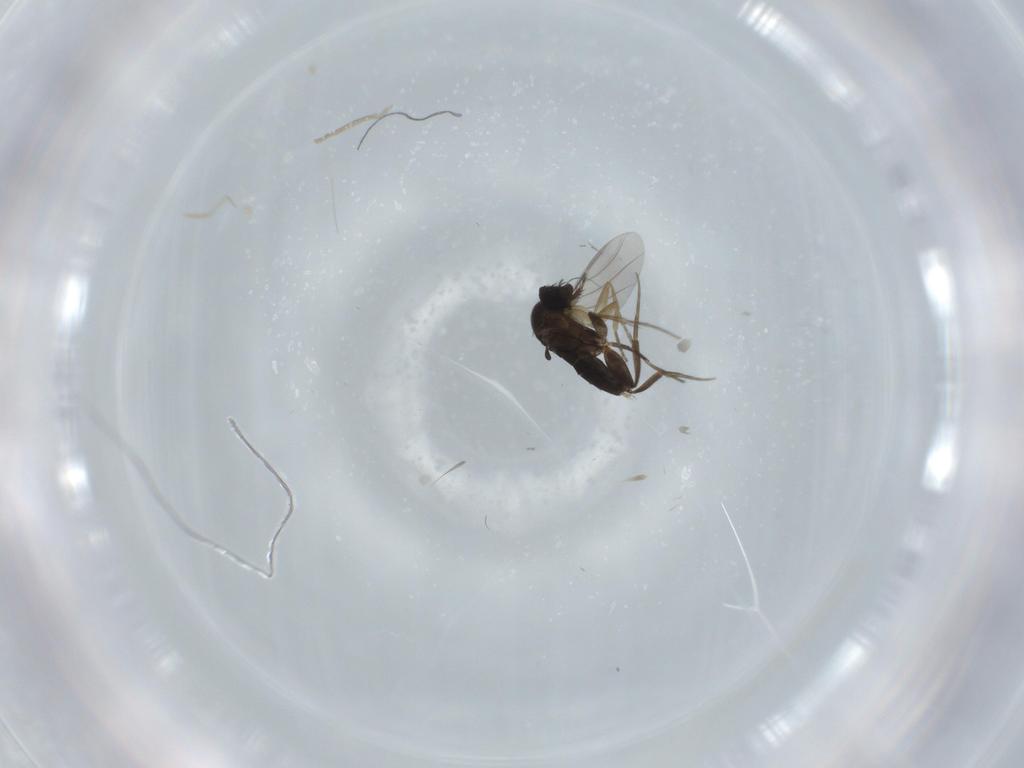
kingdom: Animalia
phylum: Arthropoda
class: Insecta
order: Diptera
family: Phoridae
